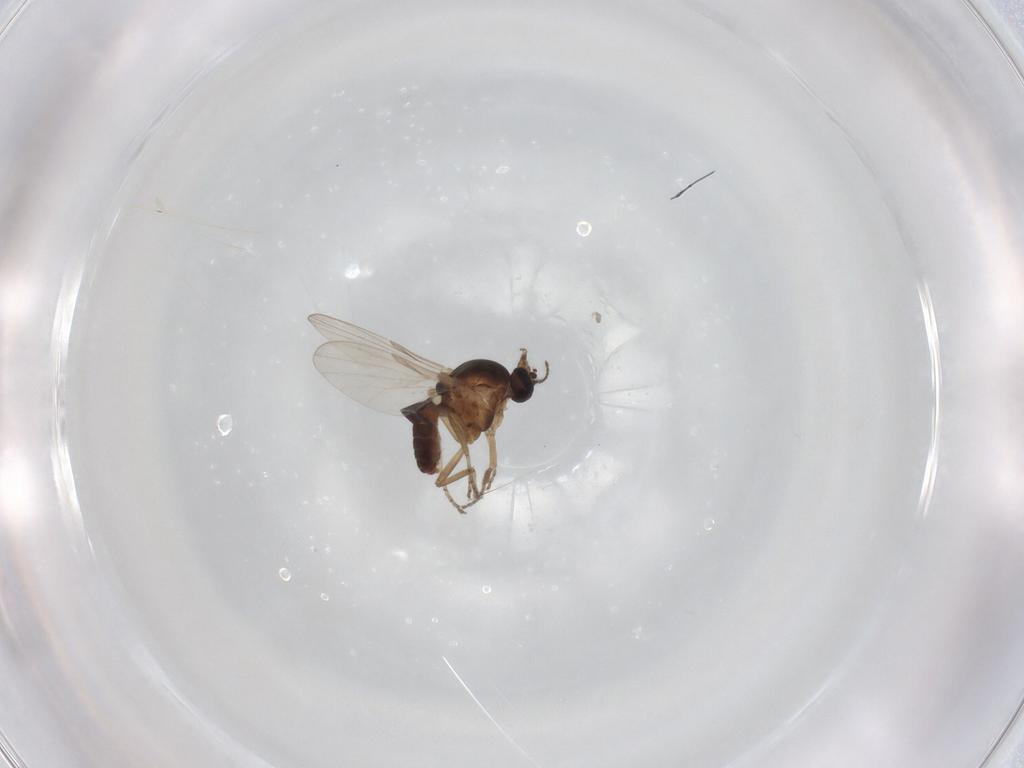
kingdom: Animalia
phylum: Arthropoda
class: Insecta
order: Diptera
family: Ceratopogonidae
